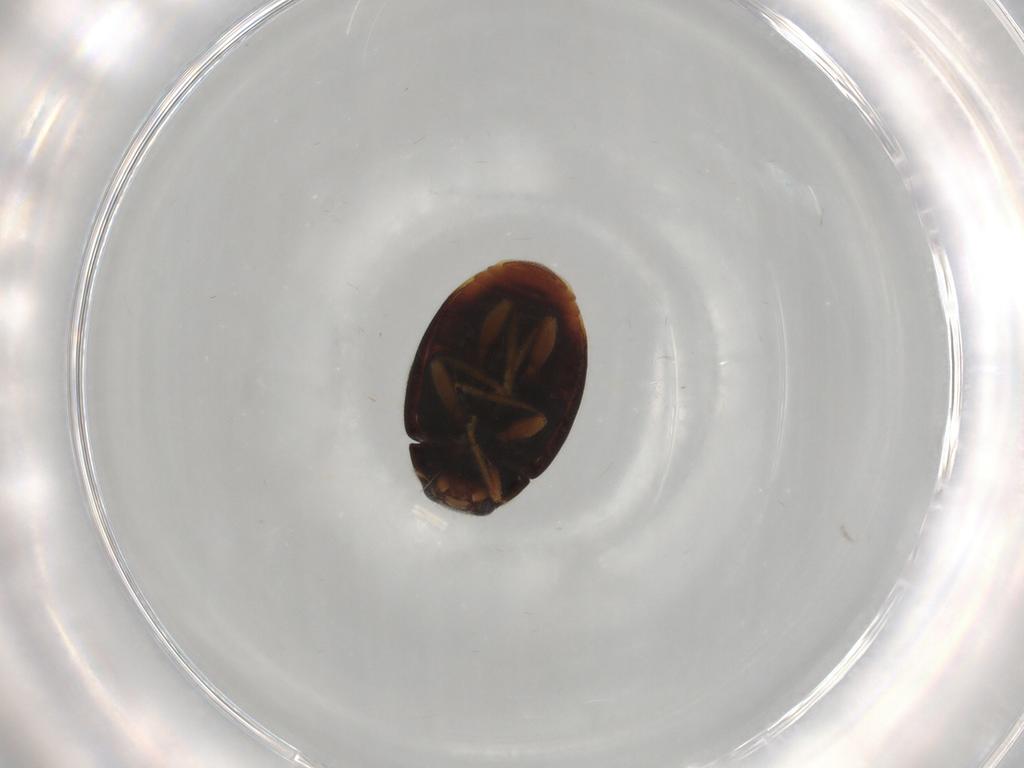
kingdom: Animalia
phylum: Arthropoda
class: Insecta
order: Coleoptera
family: Coccinellidae
